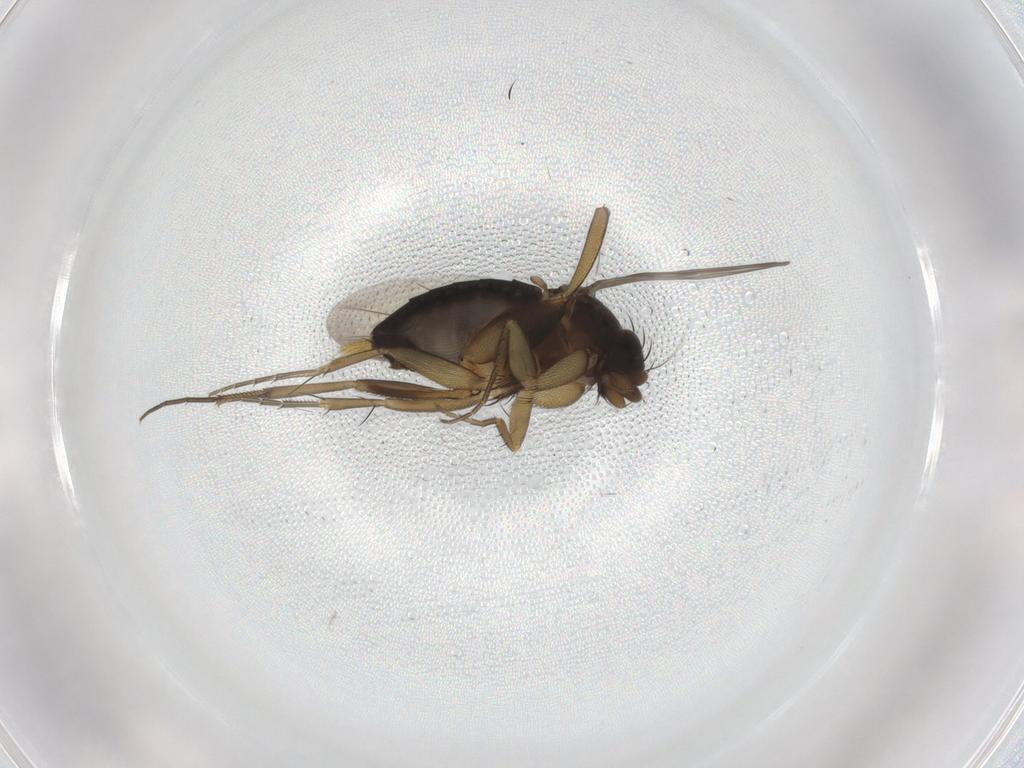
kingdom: Animalia
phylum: Arthropoda
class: Insecta
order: Diptera
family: Phoridae
